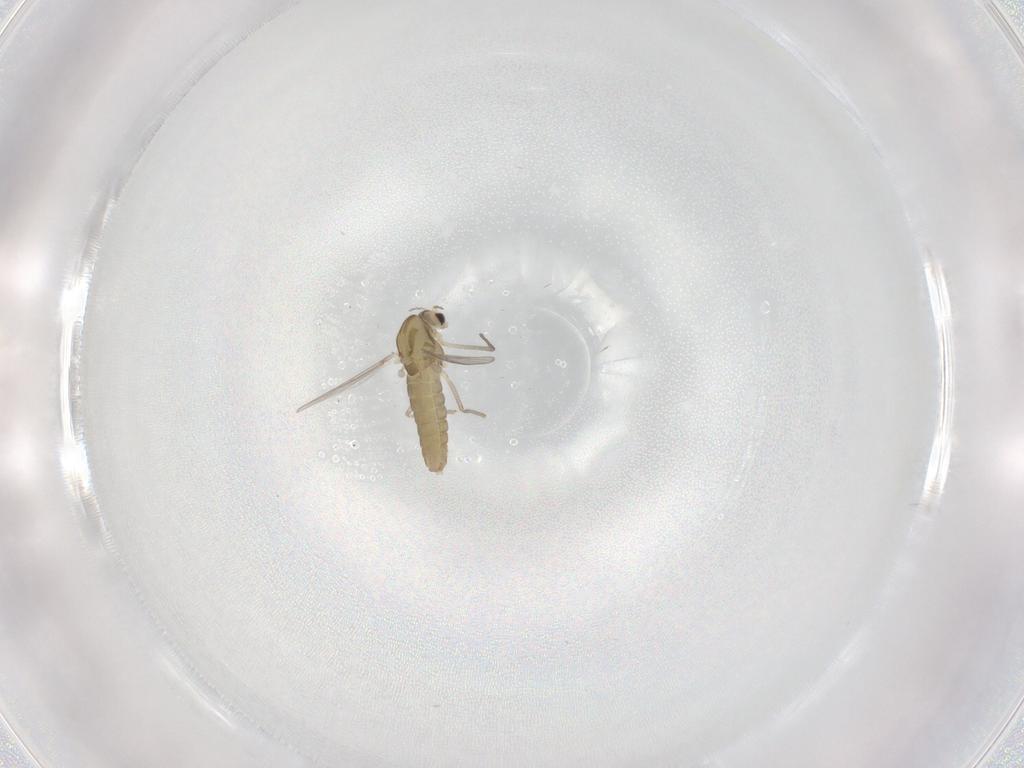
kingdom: Animalia
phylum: Arthropoda
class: Insecta
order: Diptera
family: Chironomidae
